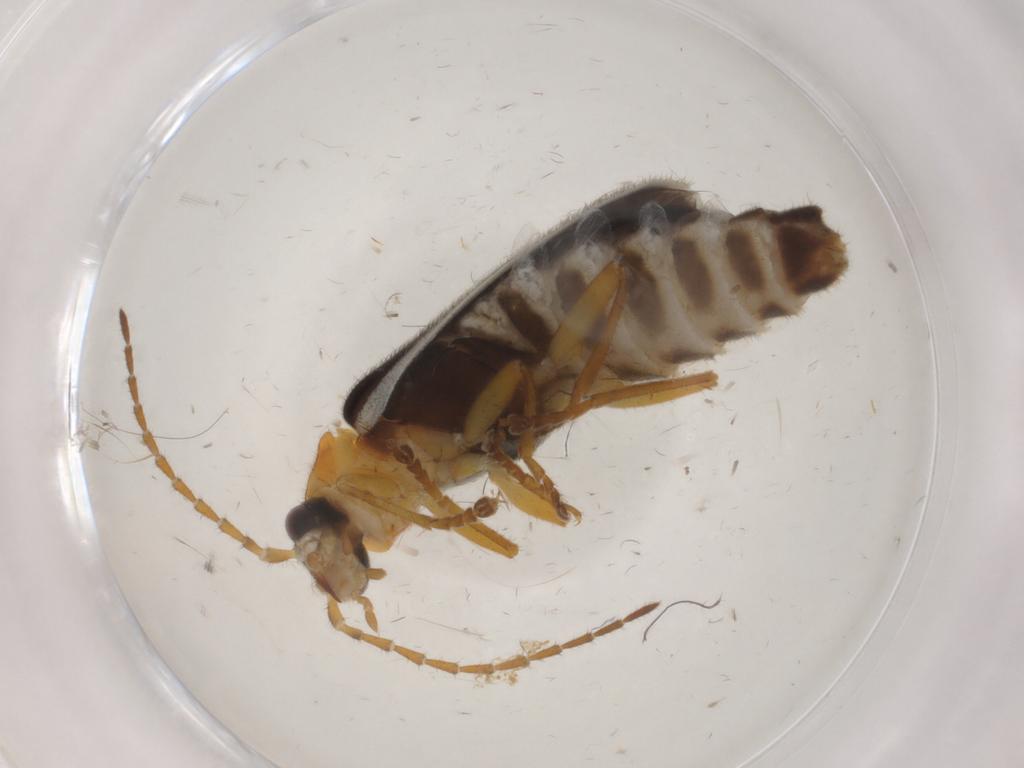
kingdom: Animalia
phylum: Arthropoda
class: Insecta
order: Coleoptera
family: Cantharidae
